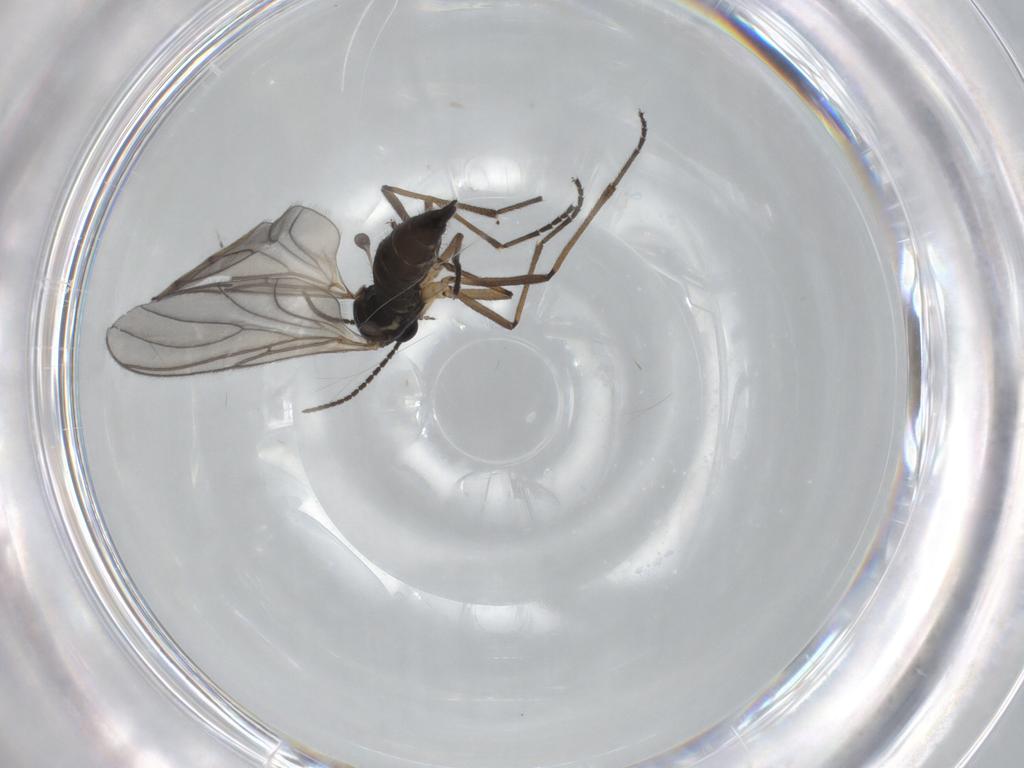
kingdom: Animalia
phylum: Arthropoda
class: Insecta
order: Diptera
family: Sciaridae
